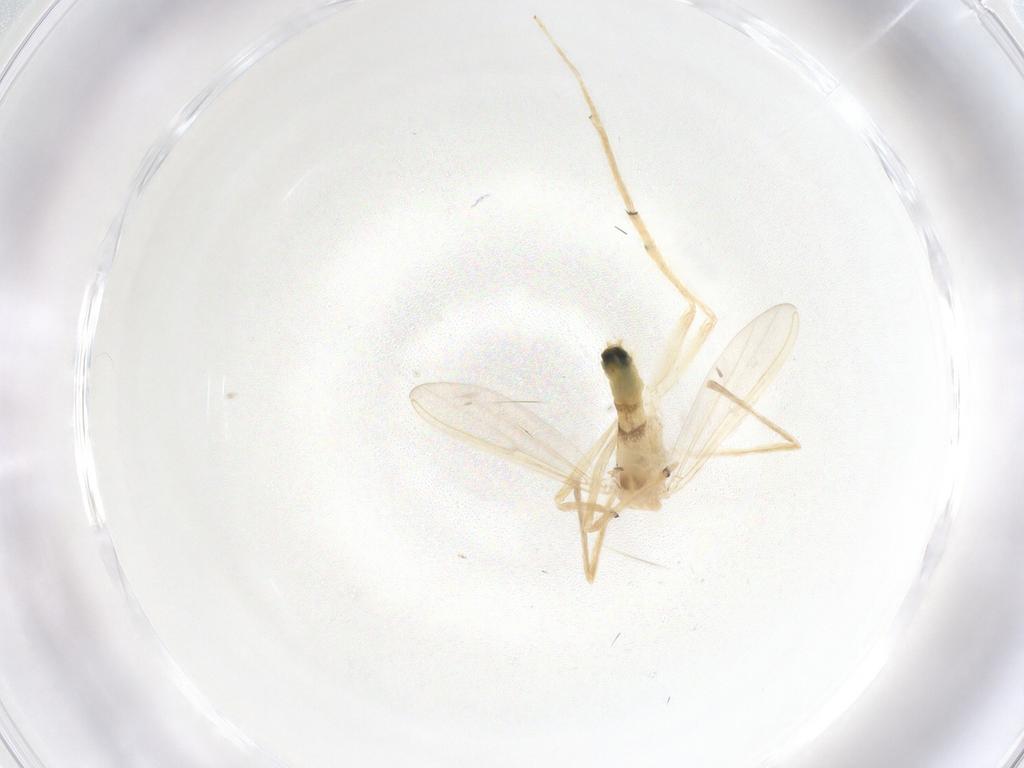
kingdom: Animalia
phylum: Arthropoda
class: Insecta
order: Diptera
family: Chironomidae
